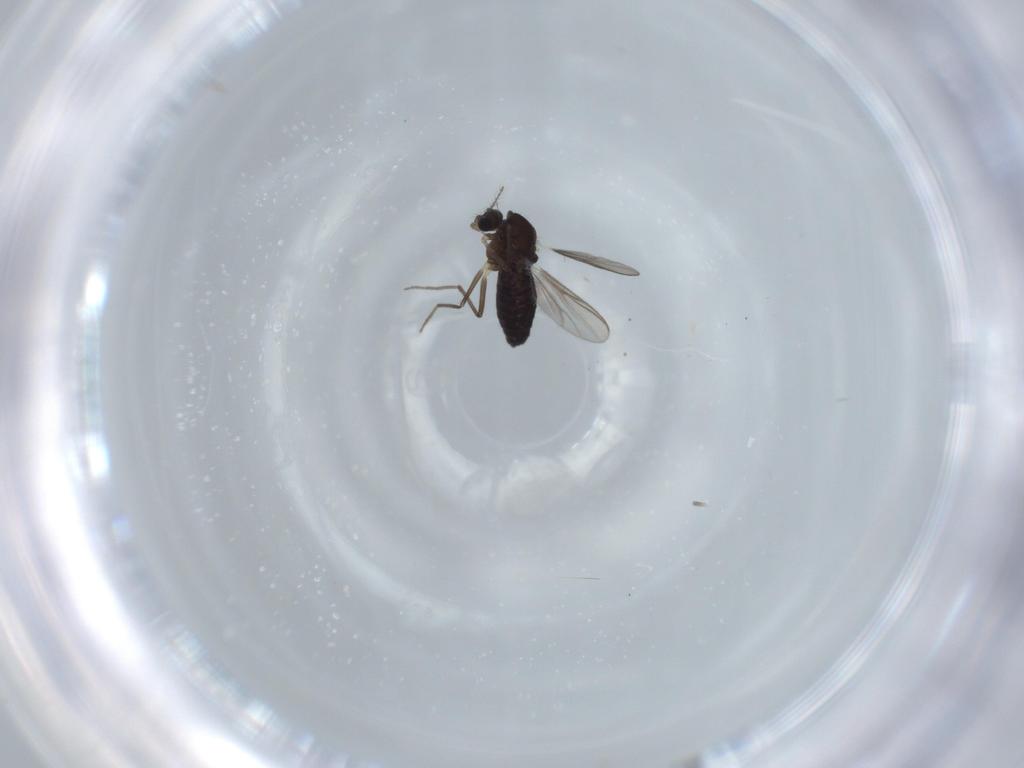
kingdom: Animalia
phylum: Arthropoda
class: Insecta
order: Diptera
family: Chironomidae
